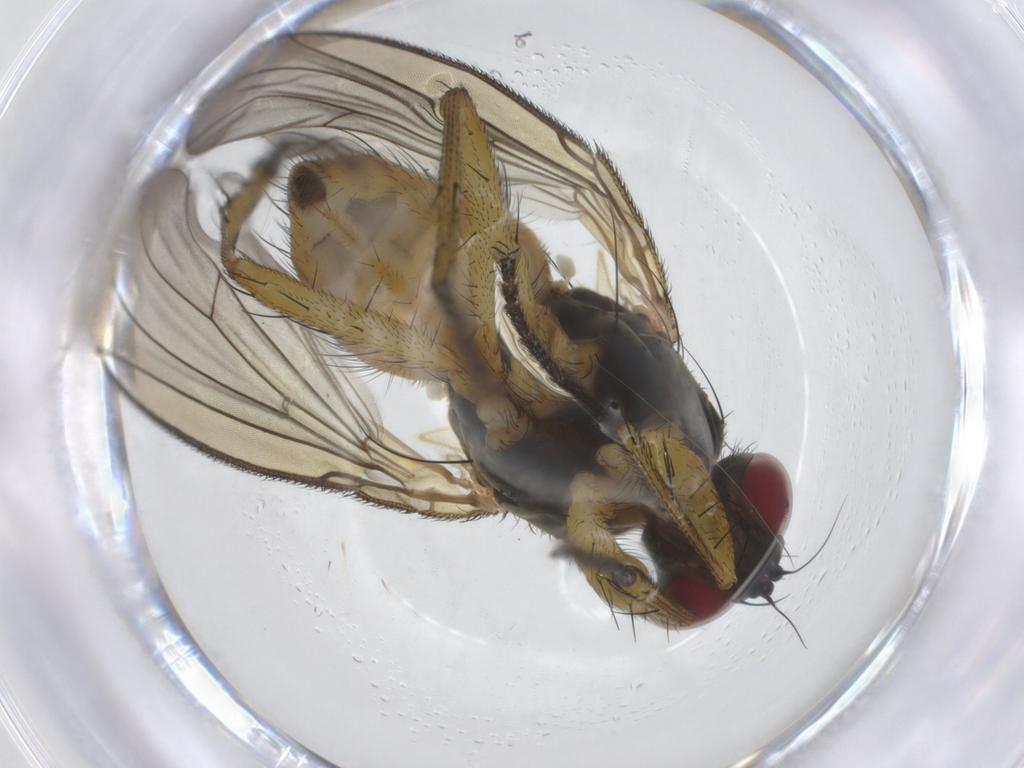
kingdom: Animalia
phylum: Arthropoda
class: Insecta
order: Diptera
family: Muscidae
